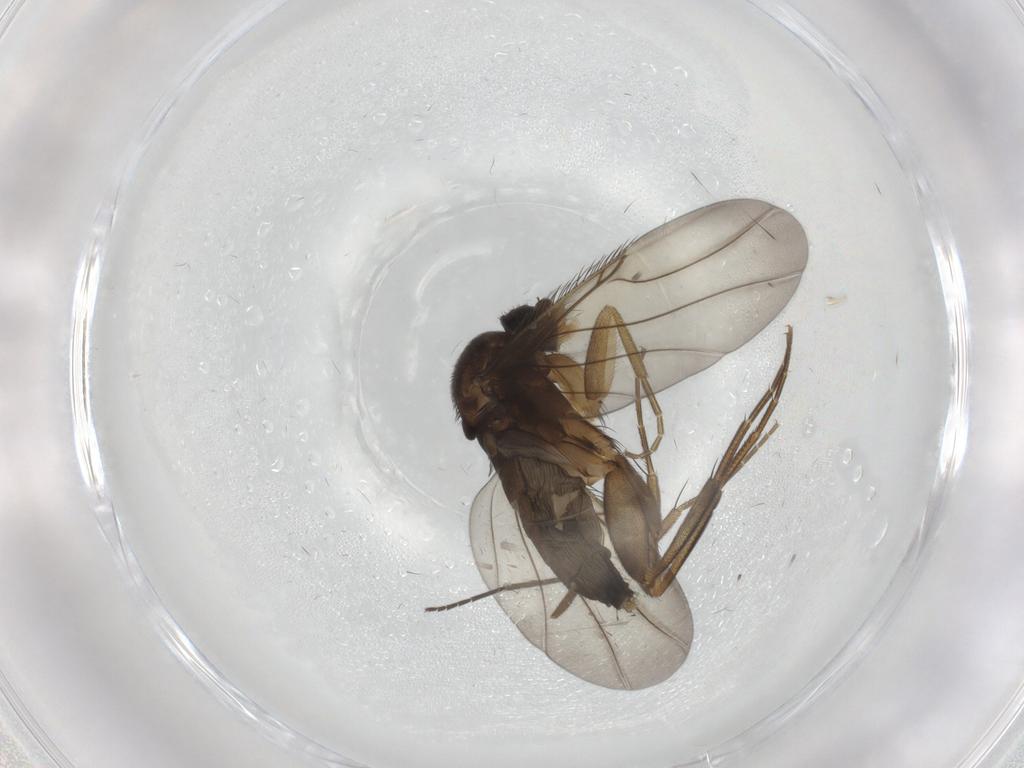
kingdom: Animalia
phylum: Arthropoda
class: Insecta
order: Diptera
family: Phoridae
